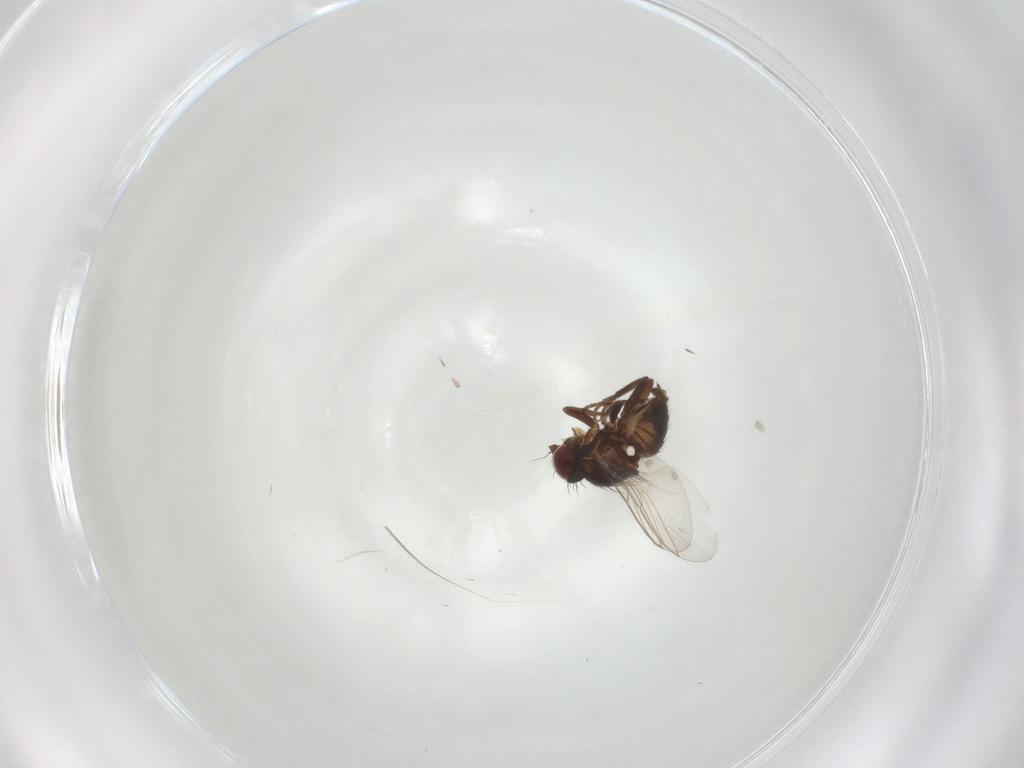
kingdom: Animalia
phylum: Arthropoda
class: Insecta
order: Diptera
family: Agromyzidae
